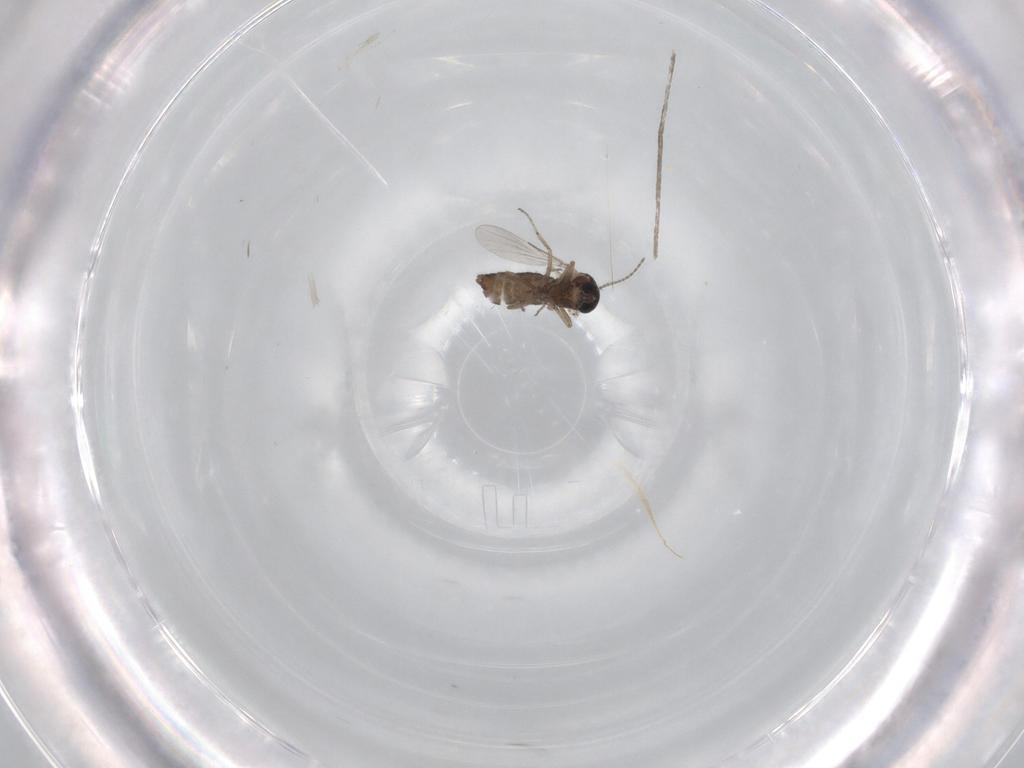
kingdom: Animalia
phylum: Arthropoda
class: Insecta
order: Diptera
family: Ceratopogonidae
